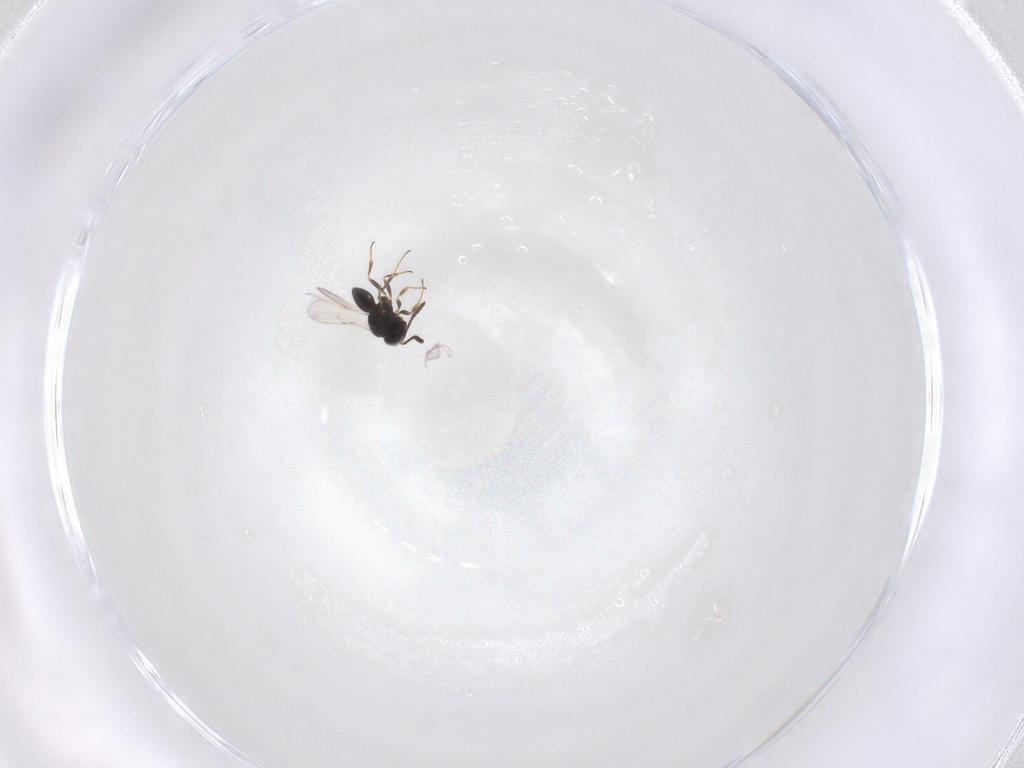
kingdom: Animalia
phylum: Arthropoda
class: Insecta
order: Hymenoptera
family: Scelionidae
